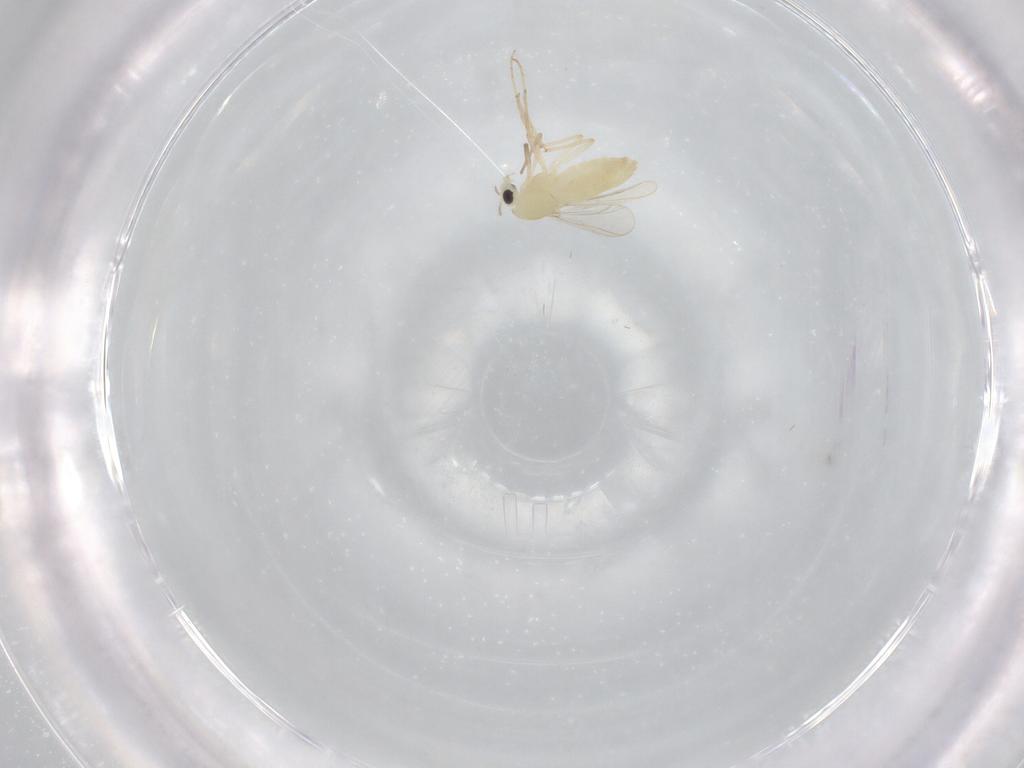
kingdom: Animalia
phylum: Arthropoda
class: Insecta
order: Diptera
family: Chironomidae
